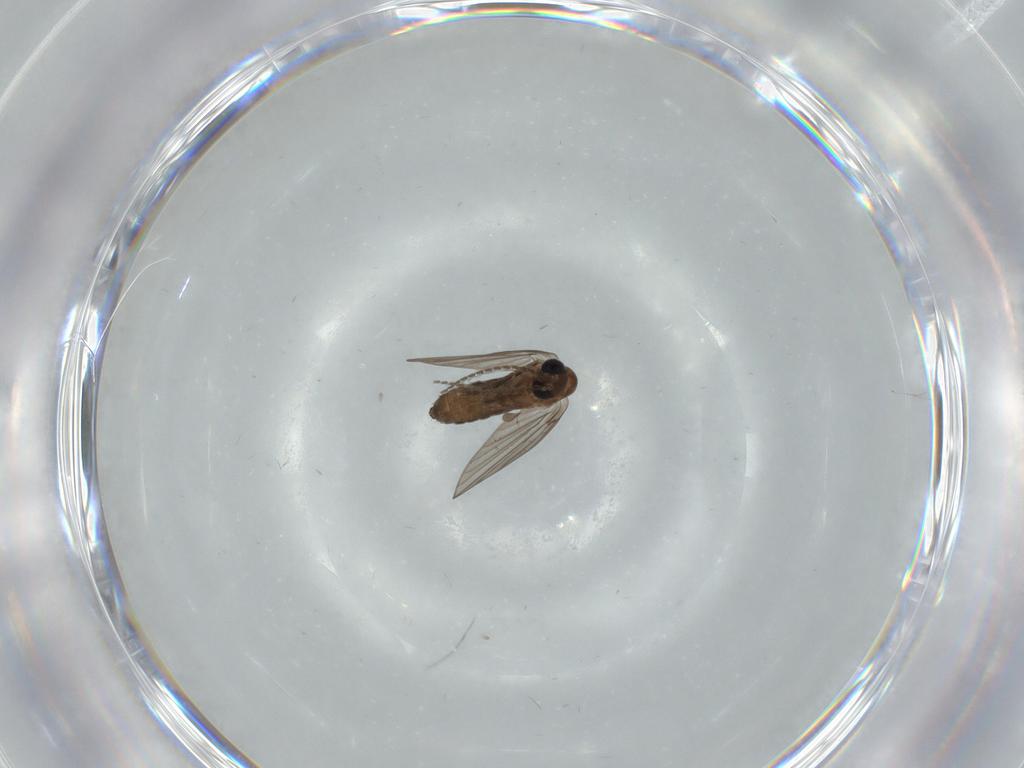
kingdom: Animalia
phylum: Arthropoda
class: Insecta
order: Diptera
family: Psychodidae
